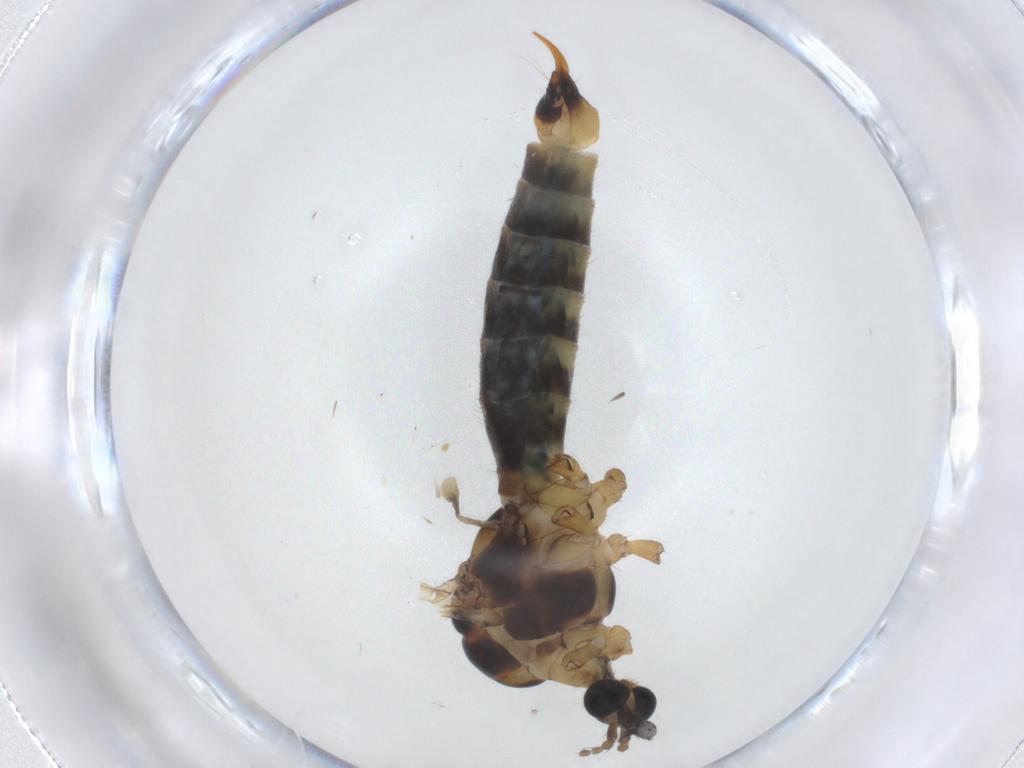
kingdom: Animalia
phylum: Arthropoda
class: Insecta
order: Diptera
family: Limoniidae
